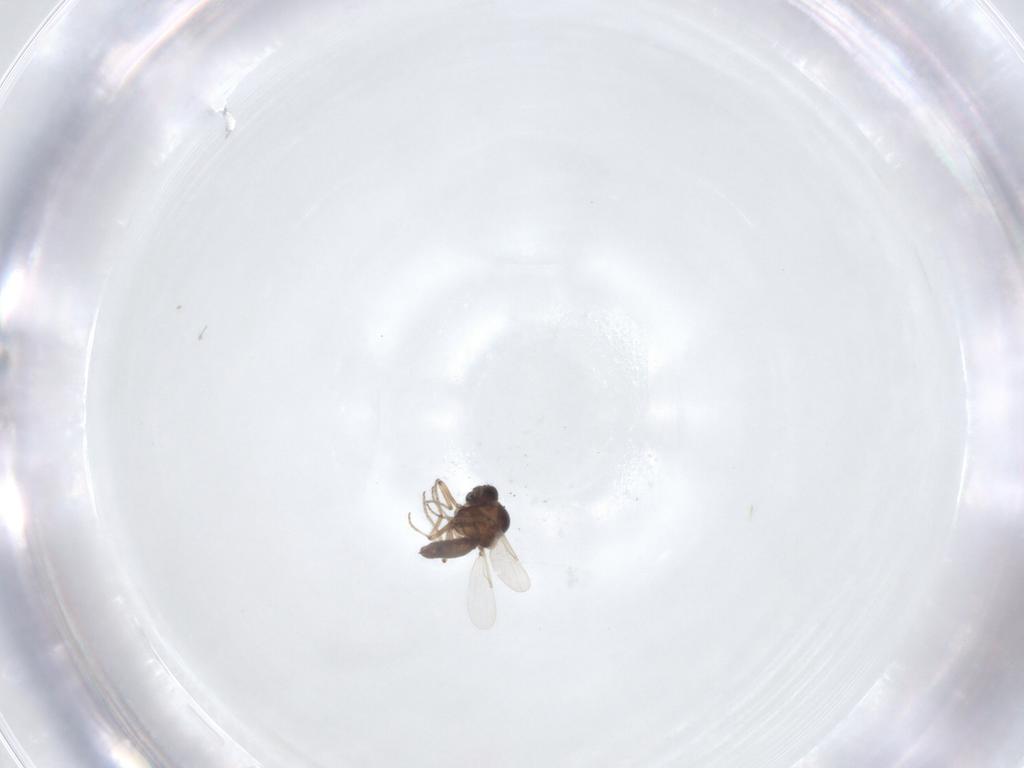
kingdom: Animalia
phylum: Arthropoda
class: Insecta
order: Diptera
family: Ceratopogonidae
